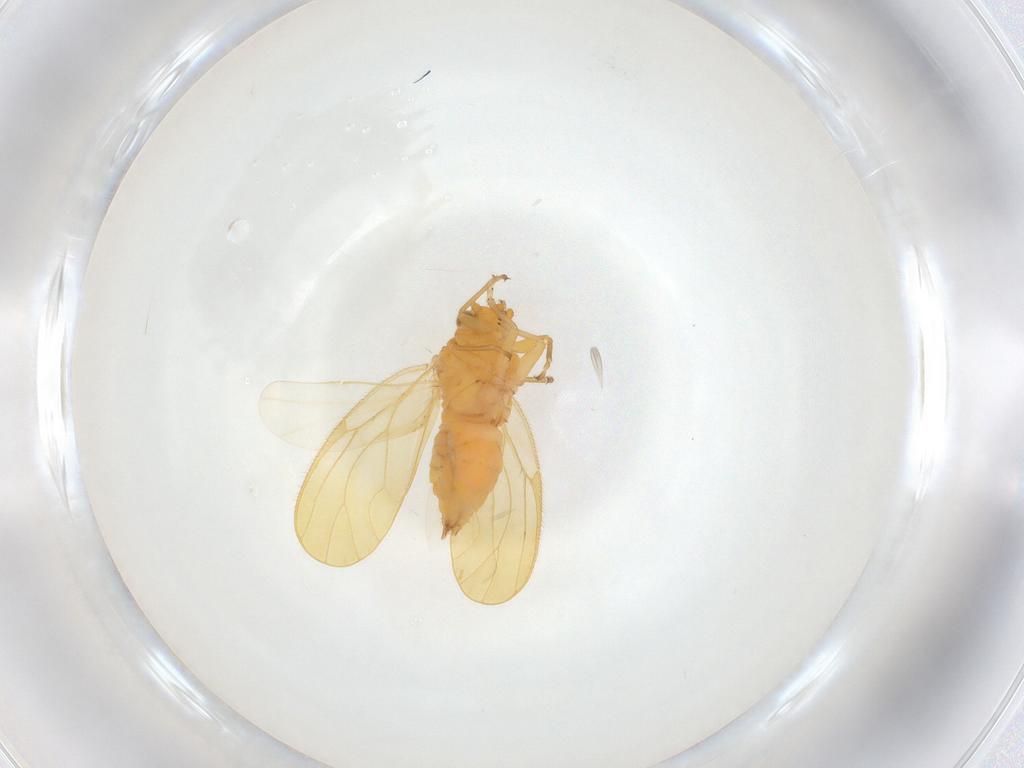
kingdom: Animalia
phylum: Arthropoda
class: Insecta
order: Hemiptera
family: Psyllidae
